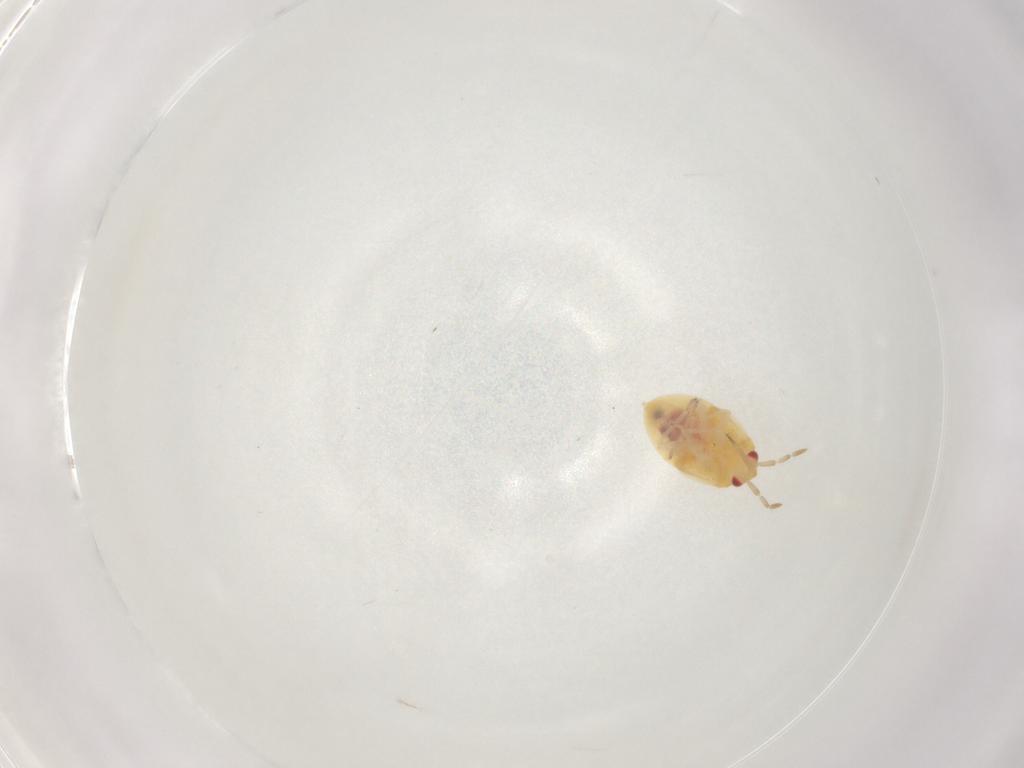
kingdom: Animalia
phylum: Arthropoda
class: Insecta
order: Hemiptera
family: Anthocoridae
